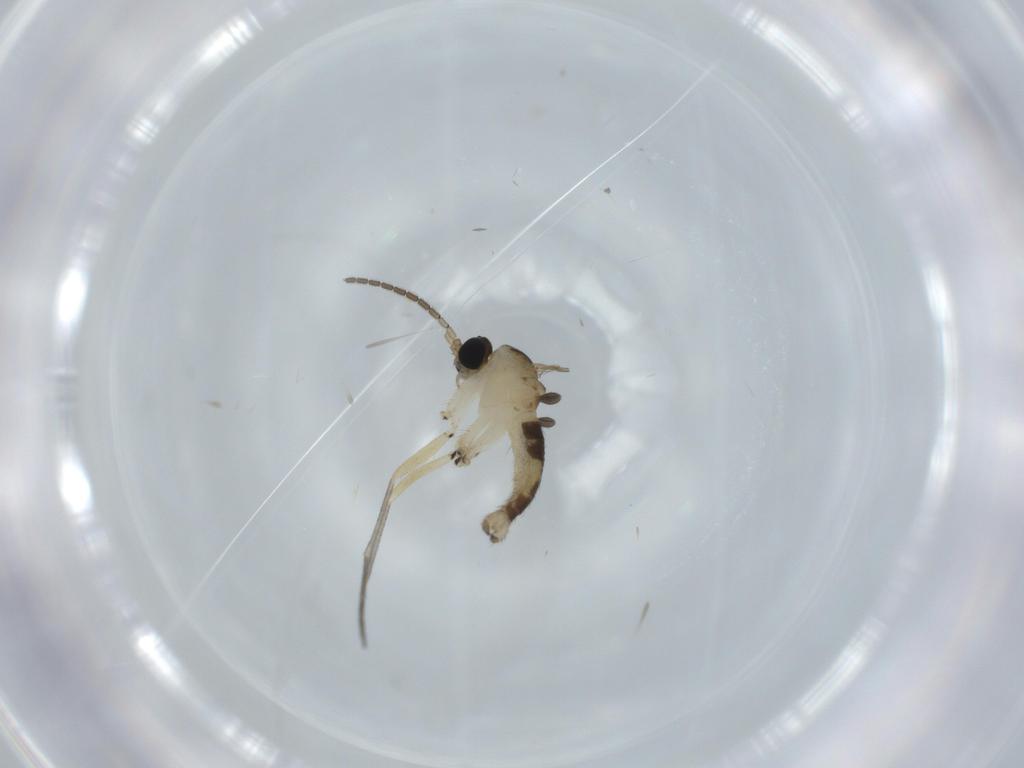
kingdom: Animalia
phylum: Arthropoda
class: Insecta
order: Diptera
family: Sciaridae
